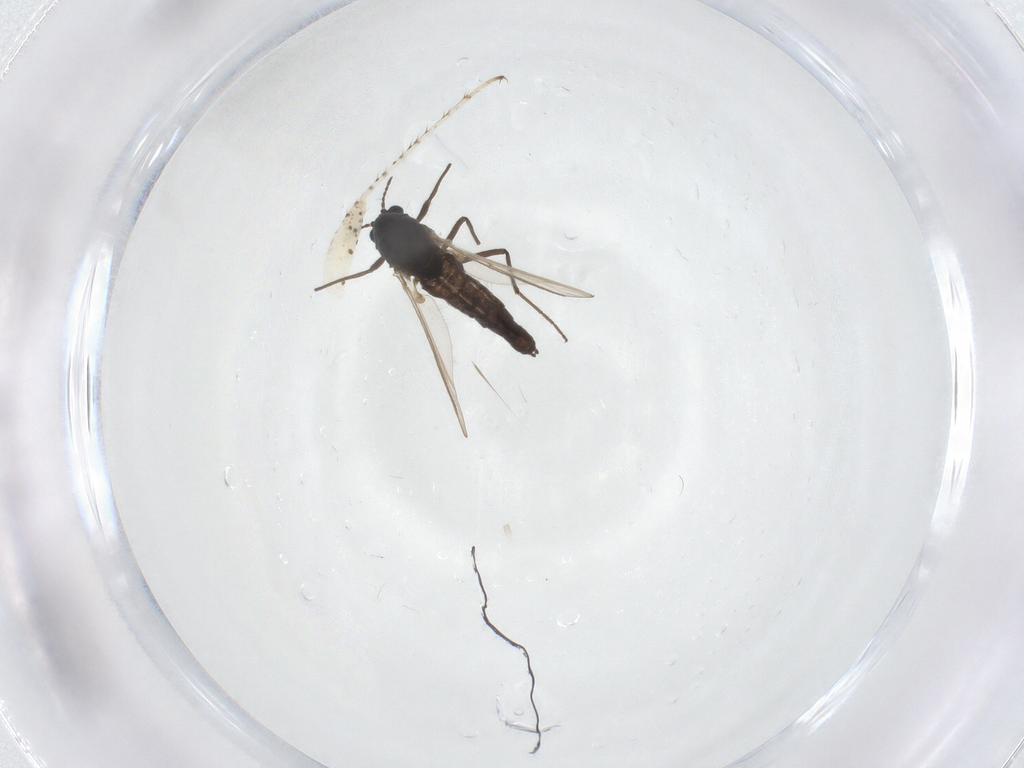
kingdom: Animalia
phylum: Arthropoda
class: Insecta
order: Diptera
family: Chironomidae
